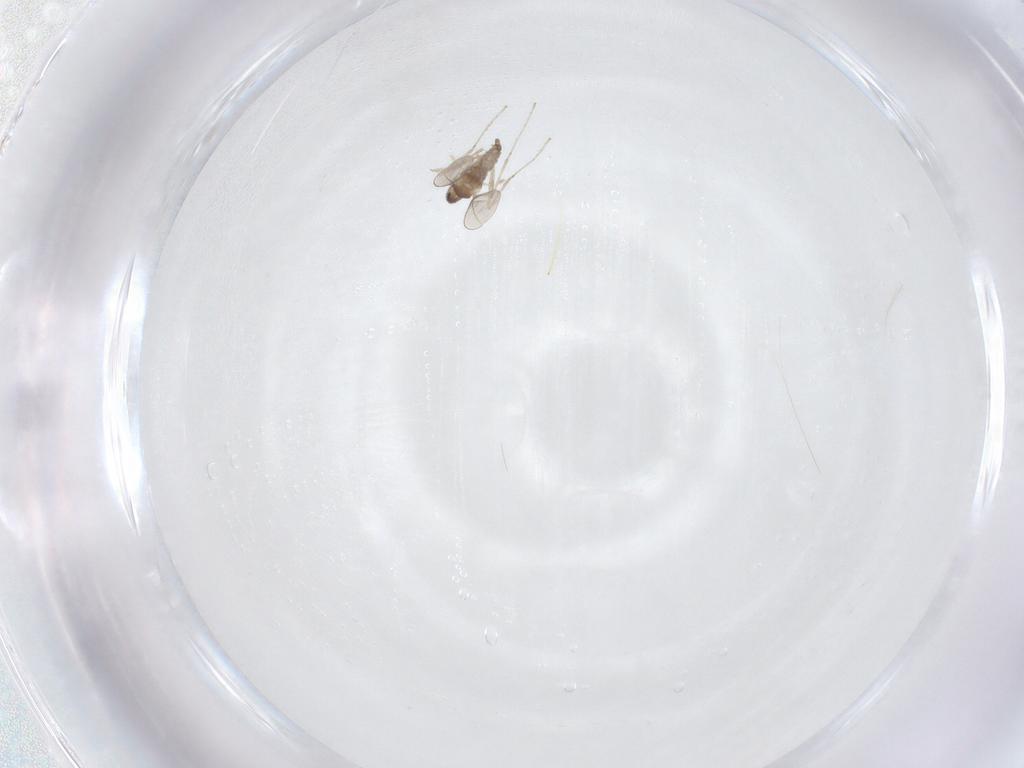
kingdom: Animalia
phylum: Arthropoda
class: Insecta
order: Diptera
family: Cecidomyiidae
